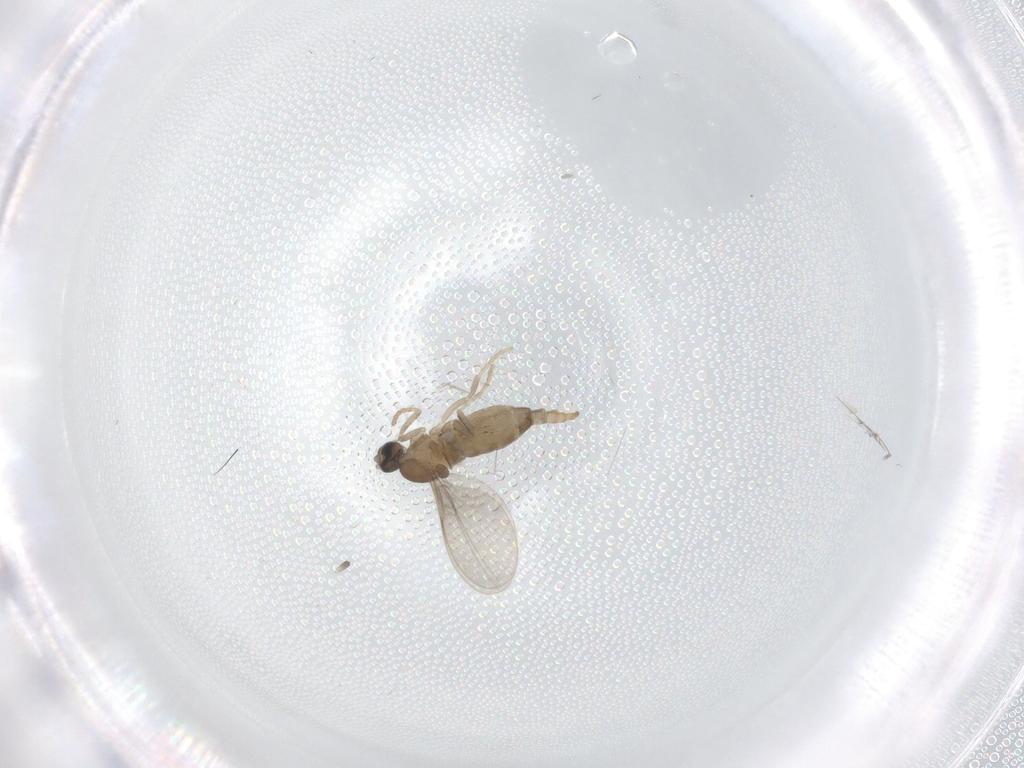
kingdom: Animalia
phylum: Arthropoda
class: Insecta
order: Diptera
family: Cecidomyiidae
